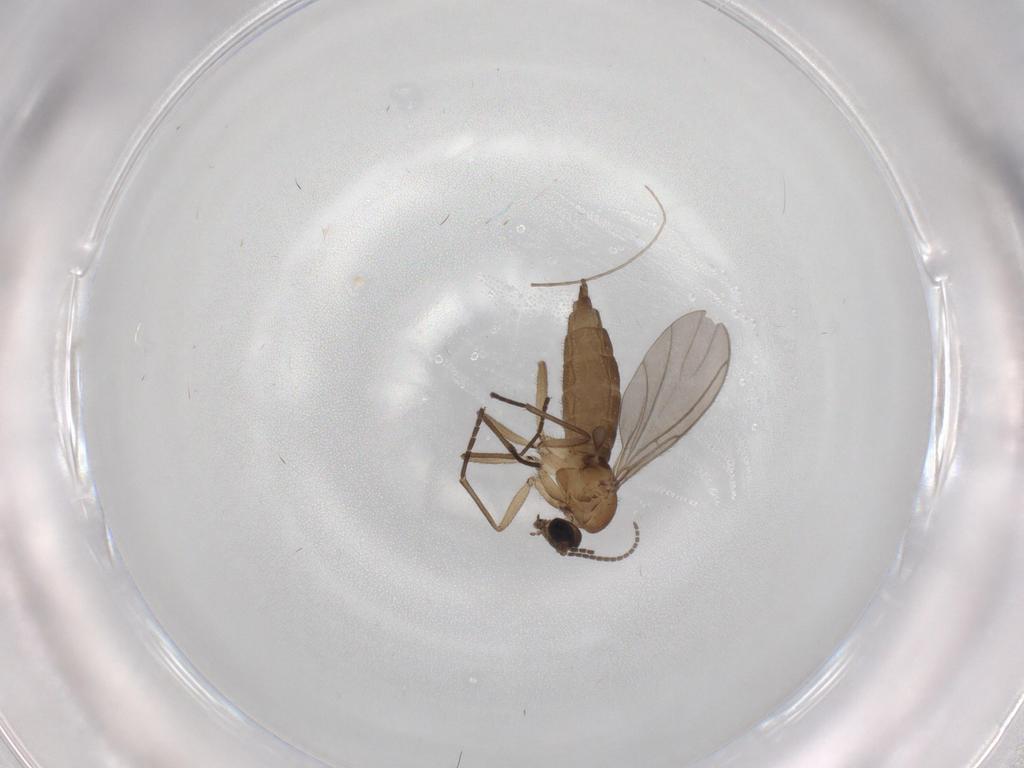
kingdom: Animalia
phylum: Arthropoda
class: Insecta
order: Diptera
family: Sciaridae
